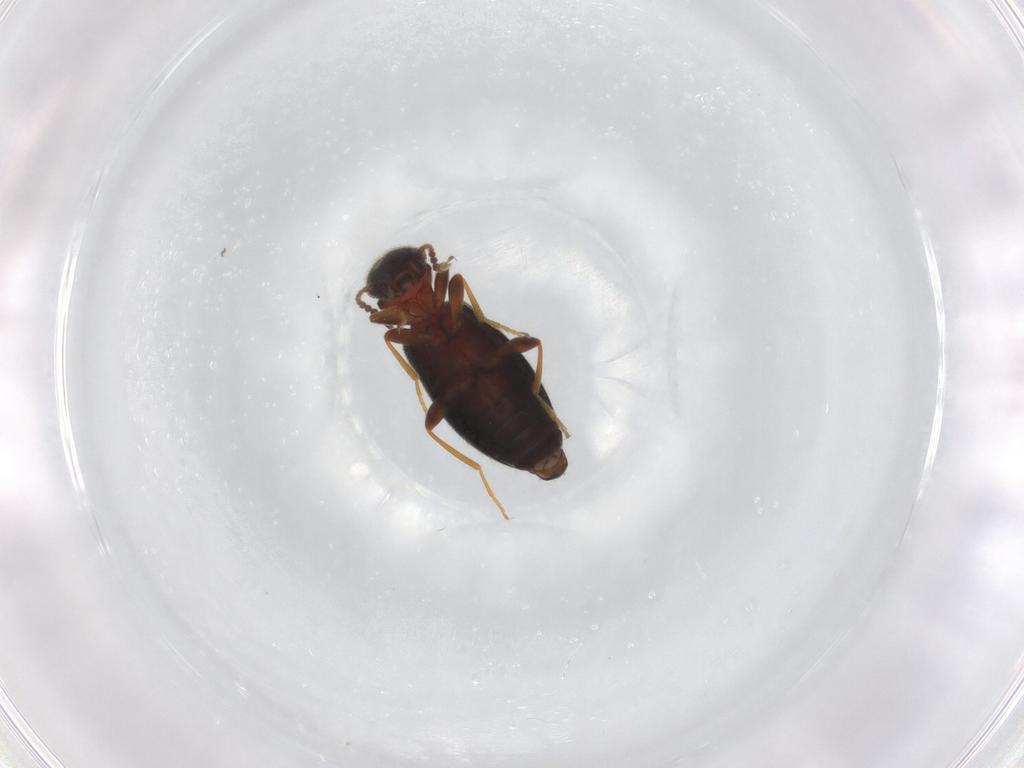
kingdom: Animalia
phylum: Arthropoda
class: Insecta
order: Coleoptera
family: Anthicidae
